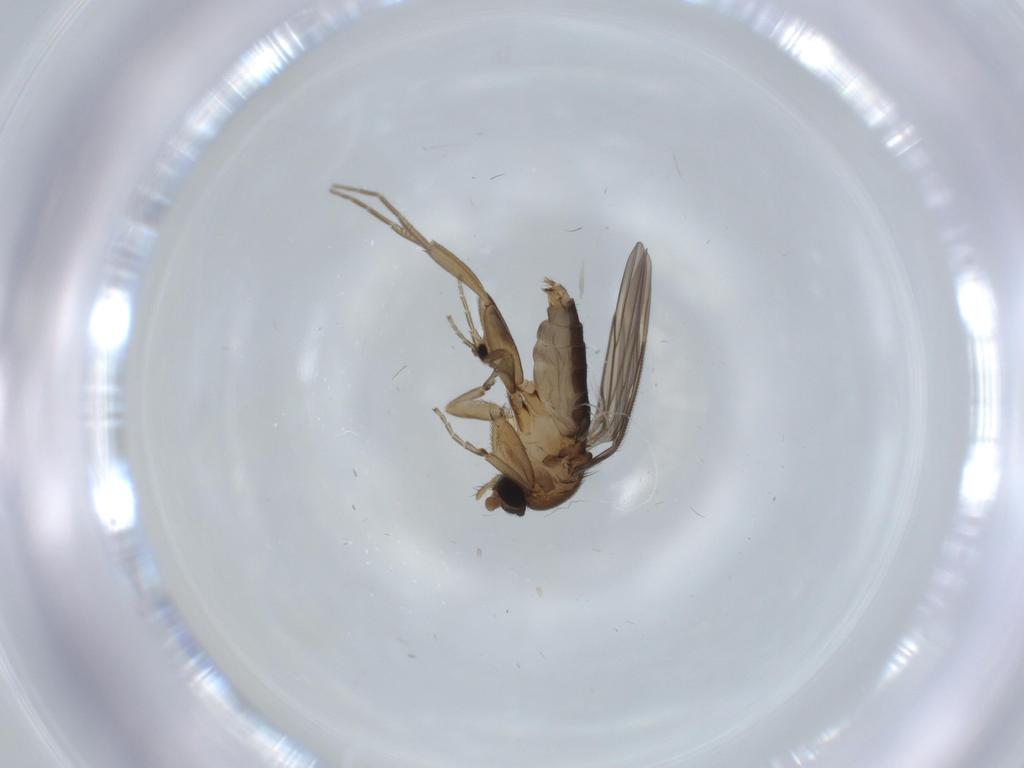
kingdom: Animalia
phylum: Arthropoda
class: Insecta
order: Diptera
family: Phoridae
